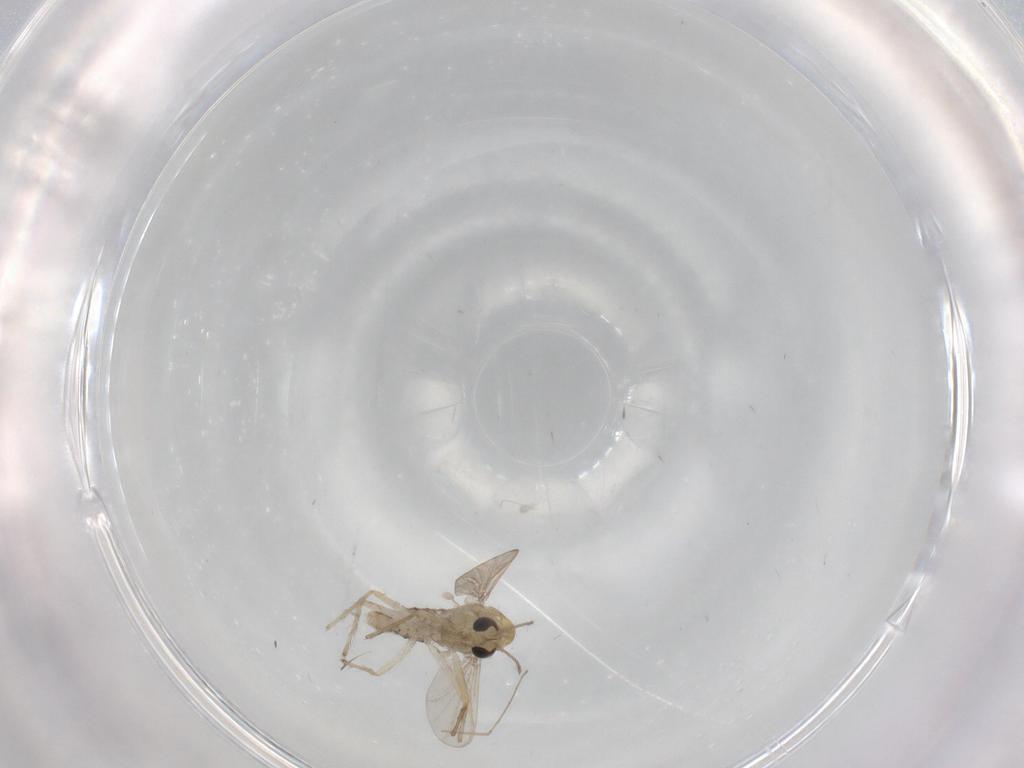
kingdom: Animalia
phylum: Arthropoda
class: Insecta
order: Diptera
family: Chironomidae
